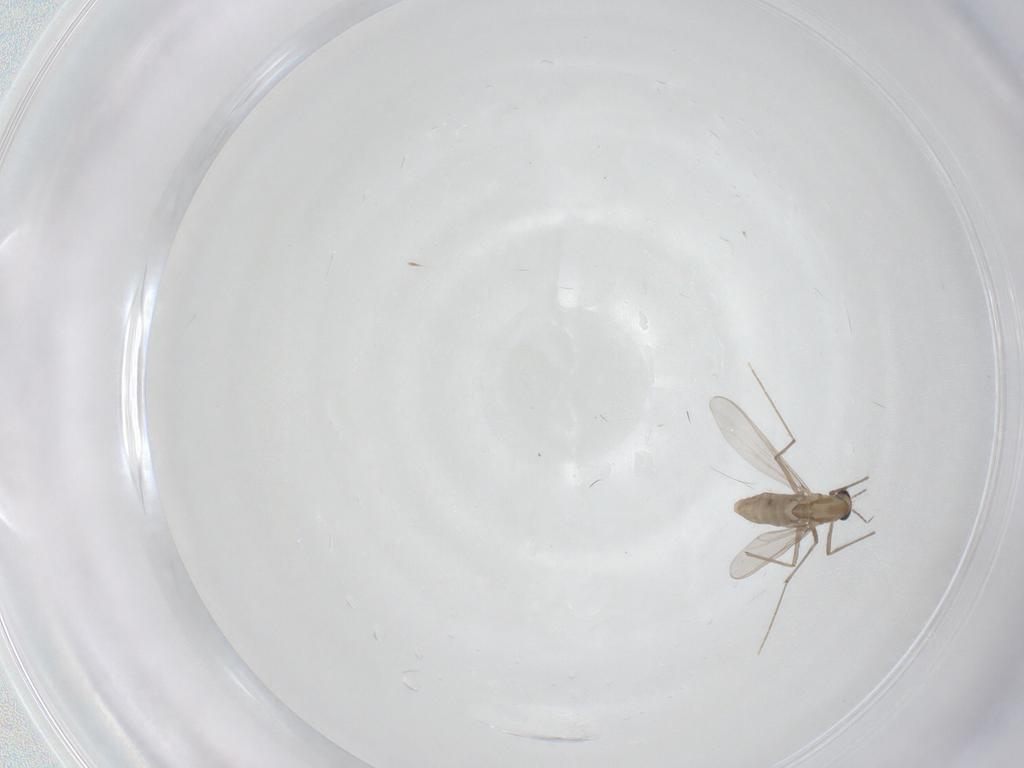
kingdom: Animalia
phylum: Arthropoda
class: Insecta
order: Diptera
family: Chironomidae
